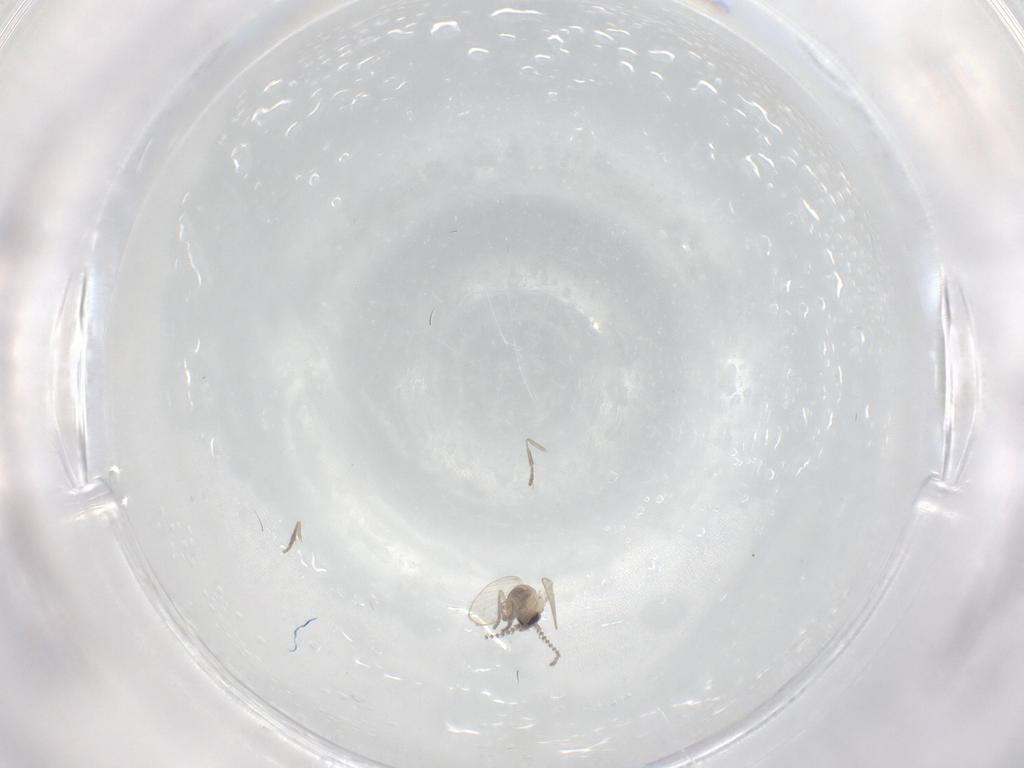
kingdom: Animalia
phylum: Arthropoda
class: Insecta
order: Diptera
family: Psychodidae
